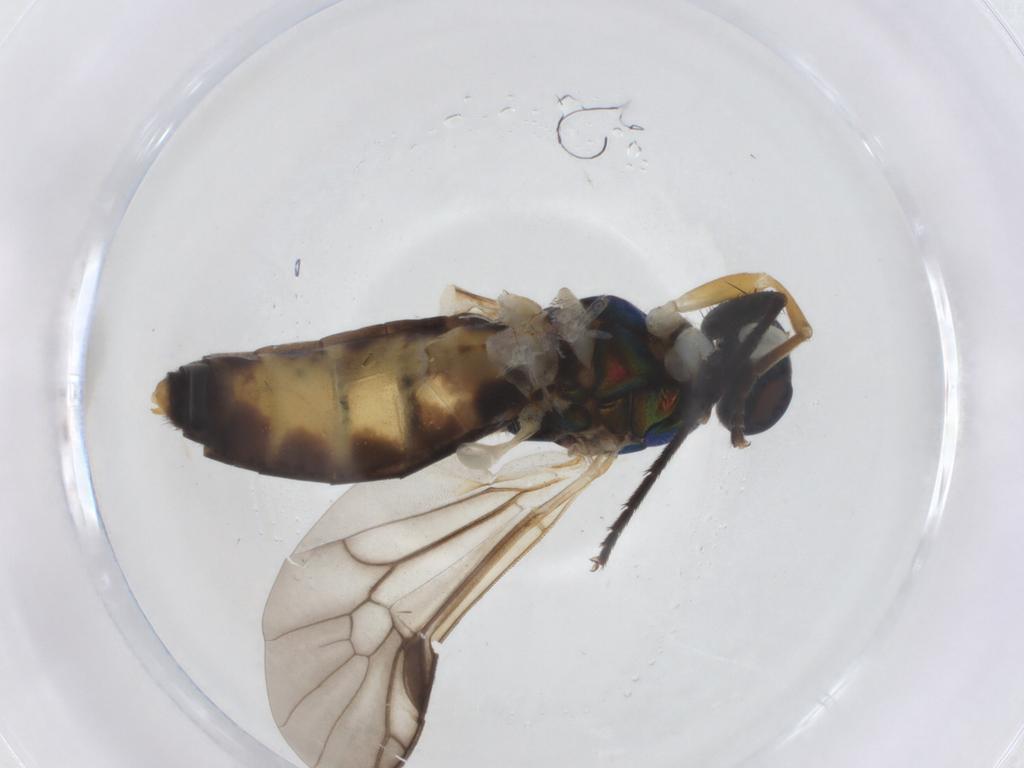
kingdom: Animalia
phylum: Arthropoda
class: Insecta
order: Diptera
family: Stratiomyidae
